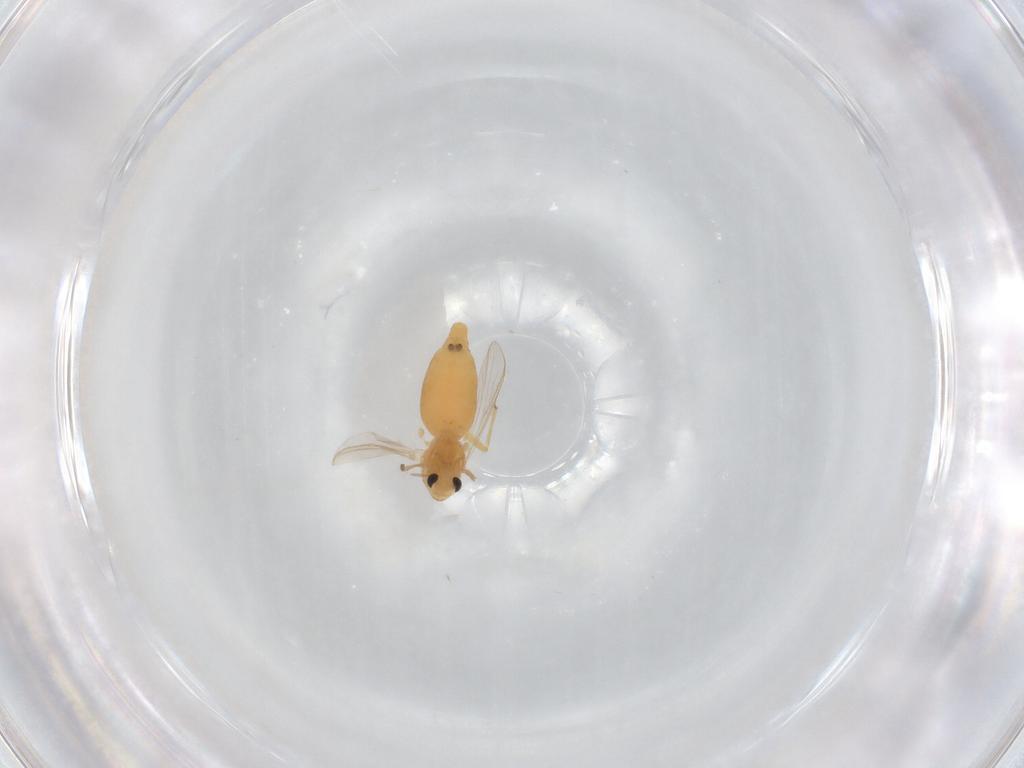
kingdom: Animalia
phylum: Arthropoda
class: Insecta
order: Diptera
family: Chironomidae
